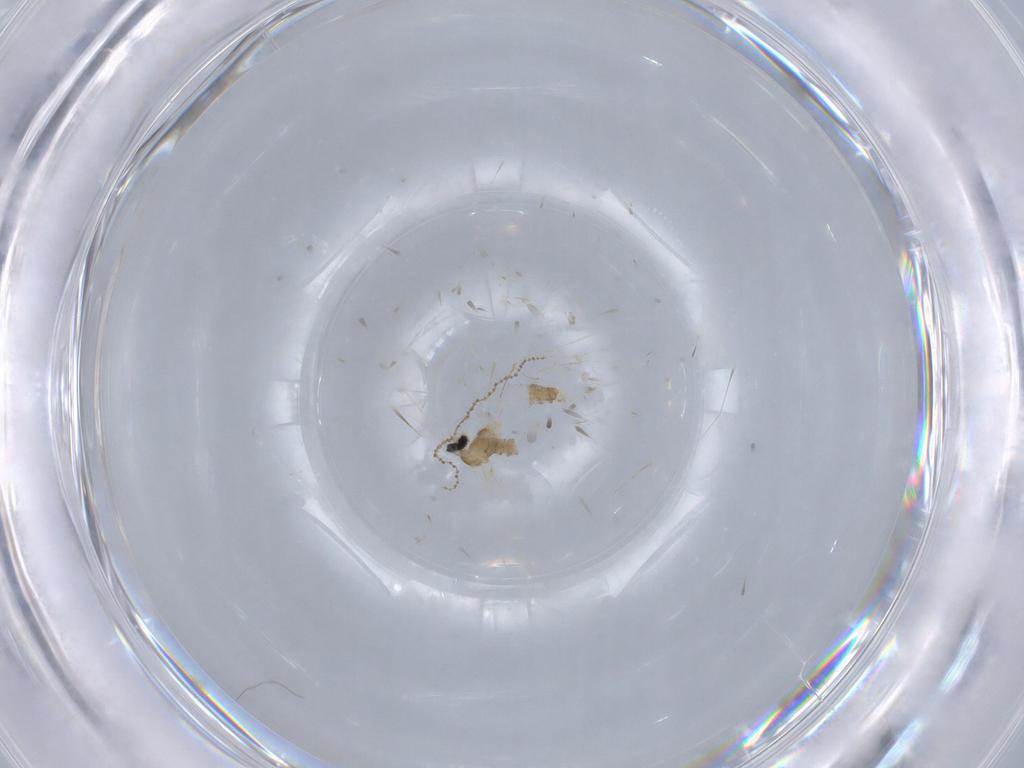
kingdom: Animalia
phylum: Arthropoda
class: Insecta
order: Diptera
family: Cecidomyiidae
